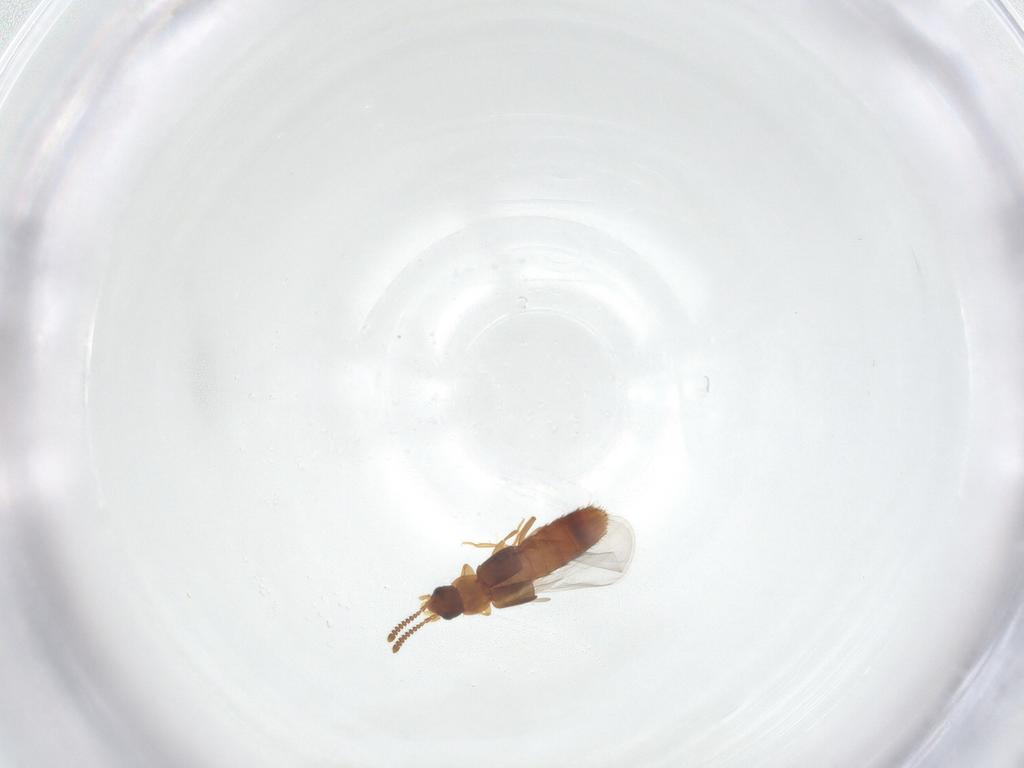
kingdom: Animalia
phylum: Arthropoda
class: Insecta
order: Coleoptera
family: Staphylinidae
